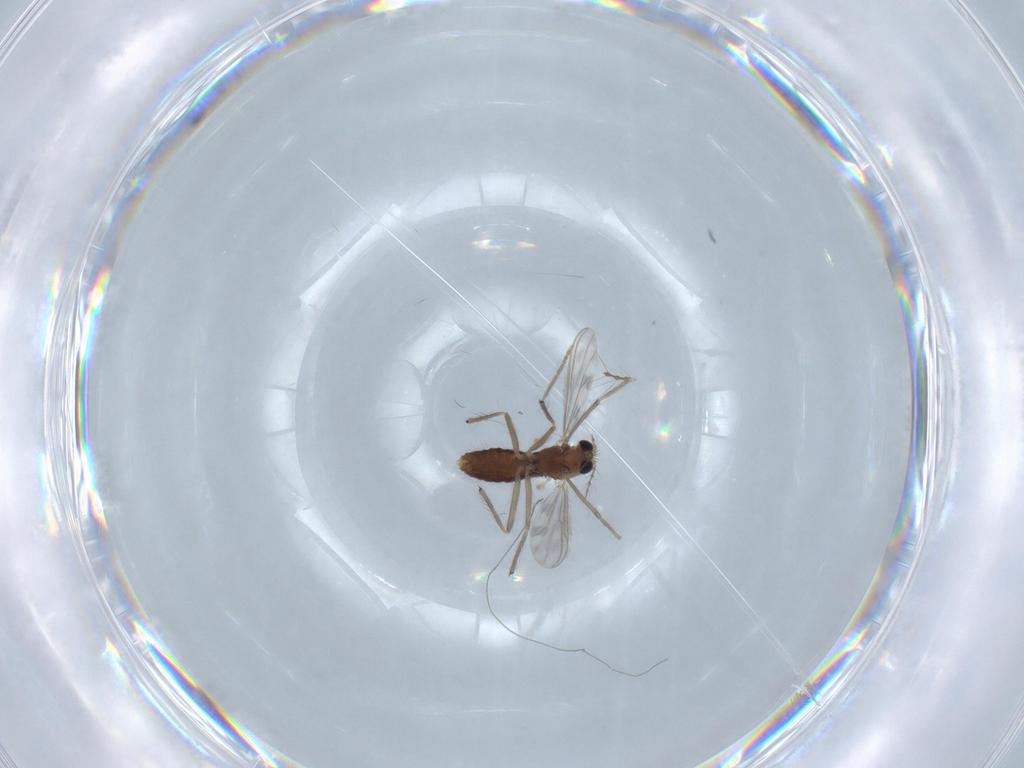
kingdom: Animalia
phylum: Arthropoda
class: Insecta
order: Diptera
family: Chironomidae
